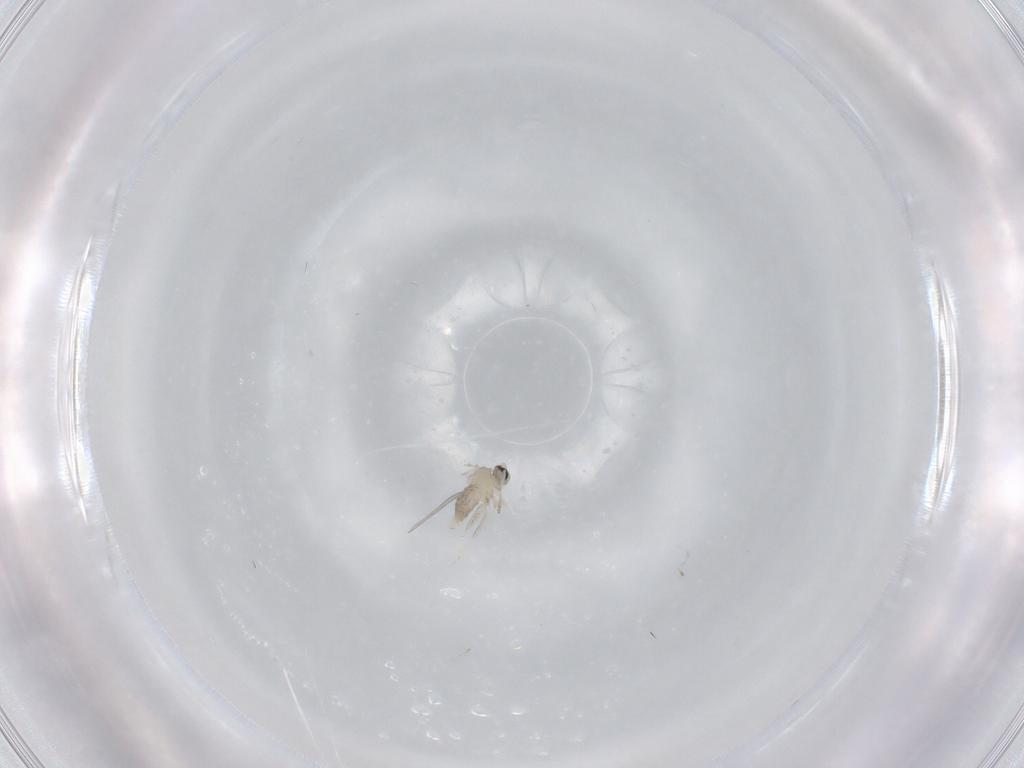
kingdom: Animalia
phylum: Arthropoda
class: Insecta
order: Diptera
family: Cecidomyiidae
